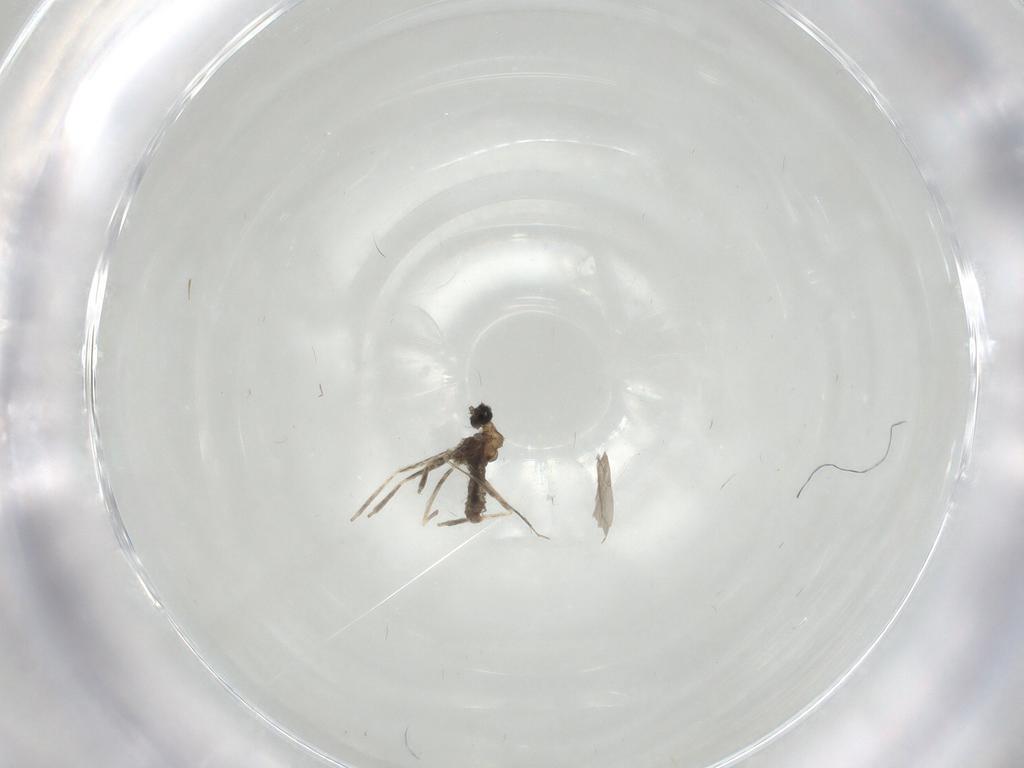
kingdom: Animalia
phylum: Arthropoda
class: Insecta
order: Diptera
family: Cecidomyiidae
